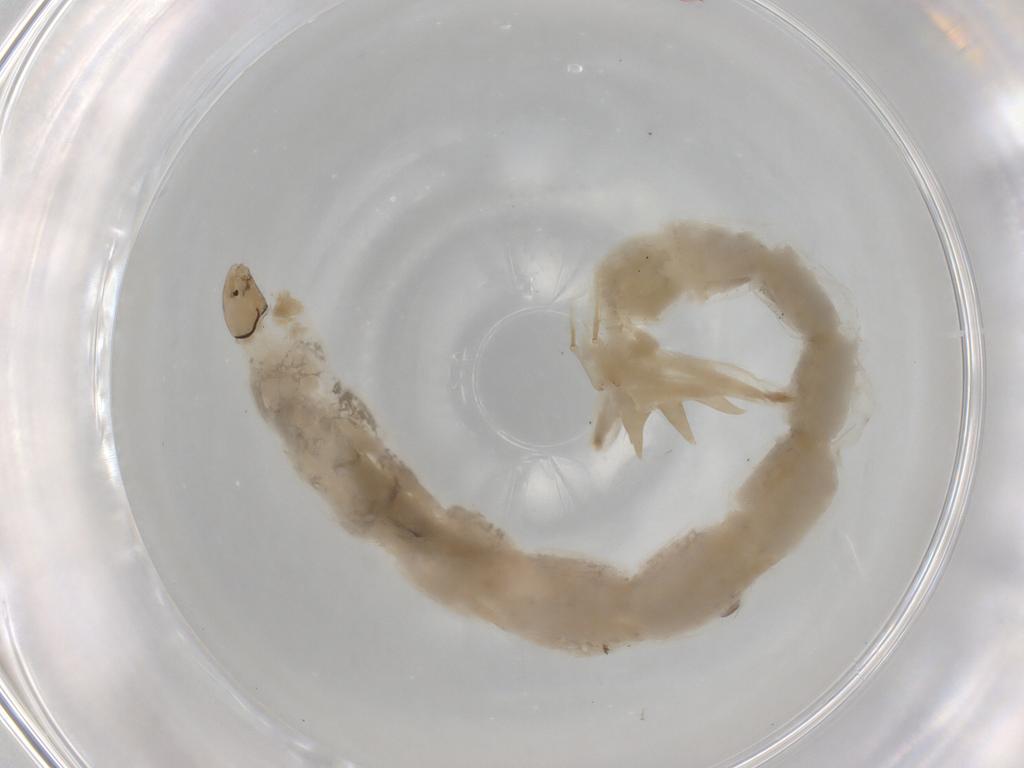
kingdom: Animalia
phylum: Arthropoda
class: Insecta
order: Diptera
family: Chironomidae
